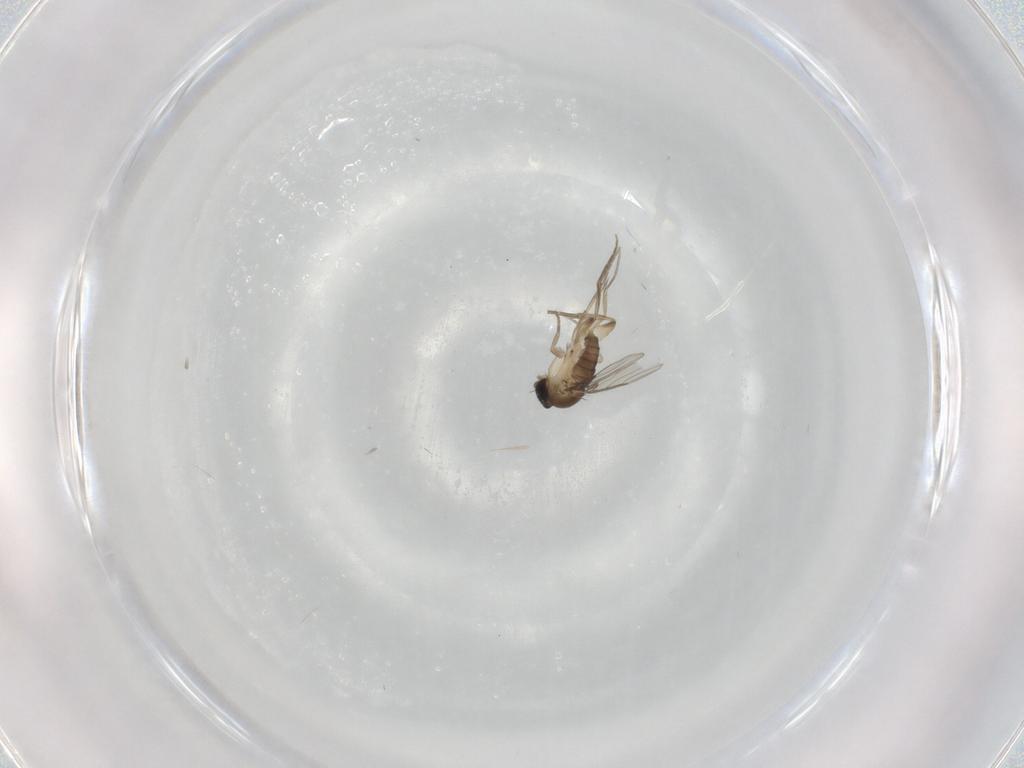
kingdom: Animalia
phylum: Arthropoda
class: Insecta
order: Diptera
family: Phoridae
